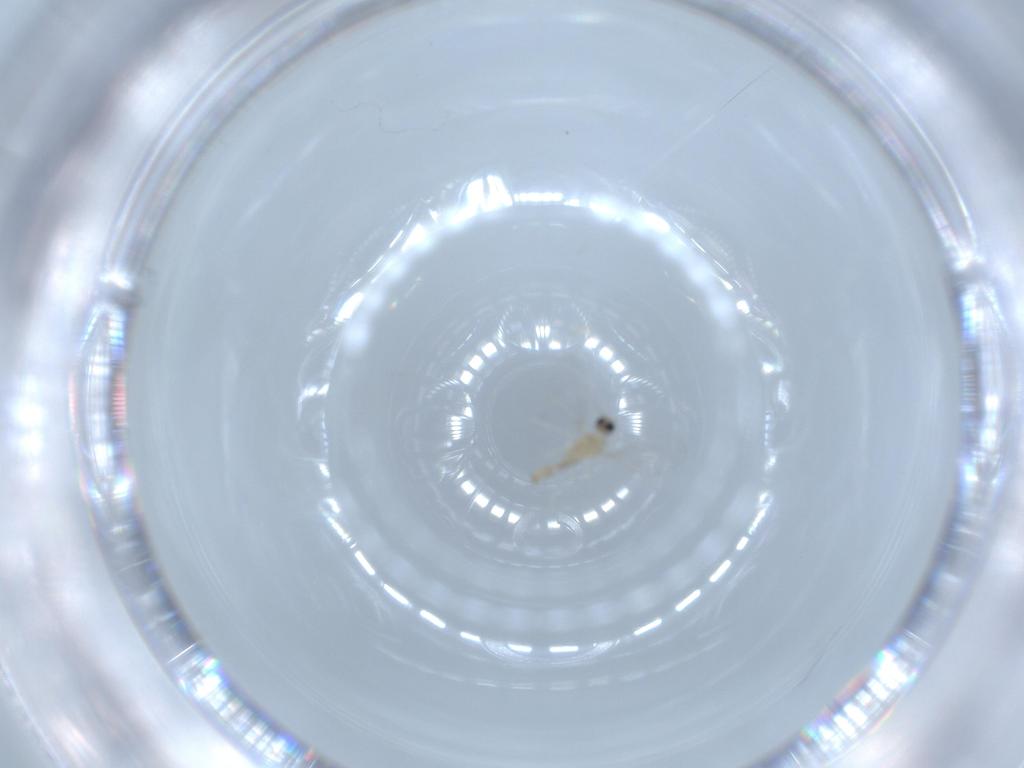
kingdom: Animalia
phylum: Arthropoda
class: Insecta
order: Diptera
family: Cecidomyiidae
